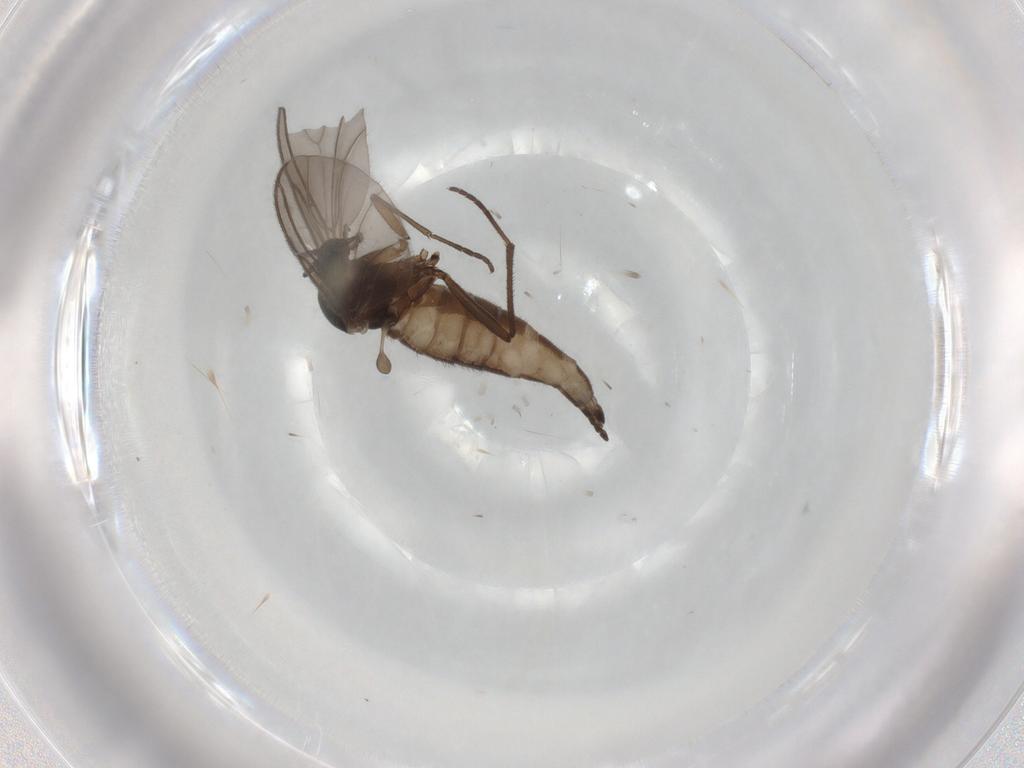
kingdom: Animalia
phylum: Arthropoda
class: Insecta
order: Diptera
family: Sciaridae
